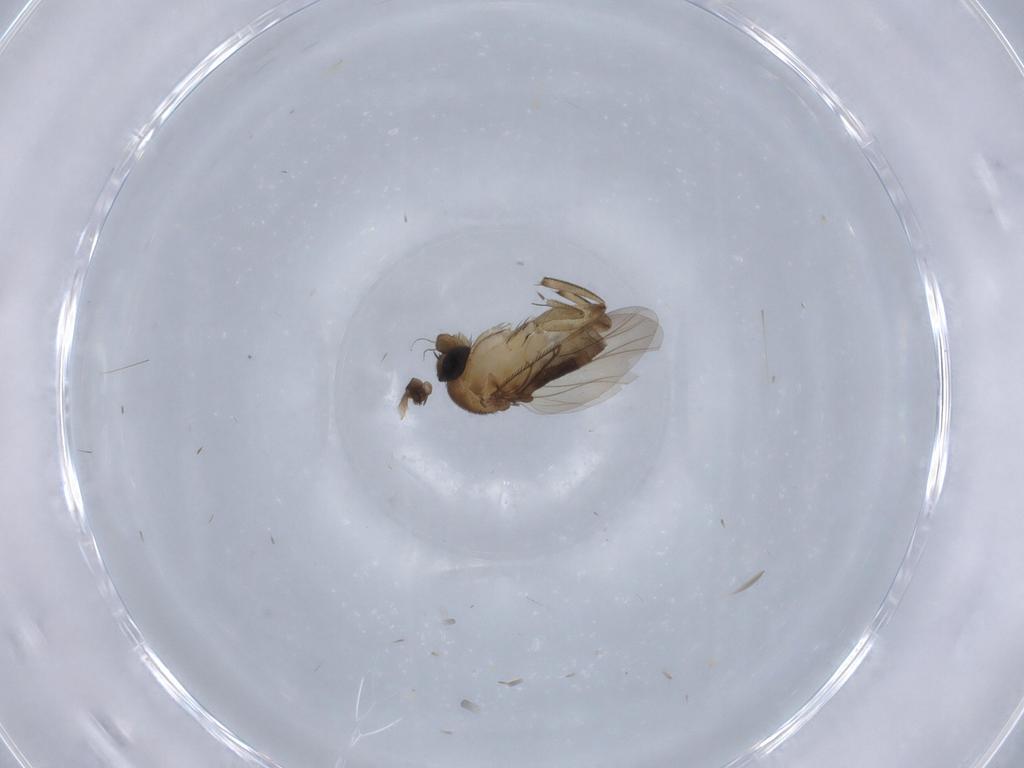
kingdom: Animalia
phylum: Arthropoda
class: Insecta
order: Diptera
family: Phoridae
